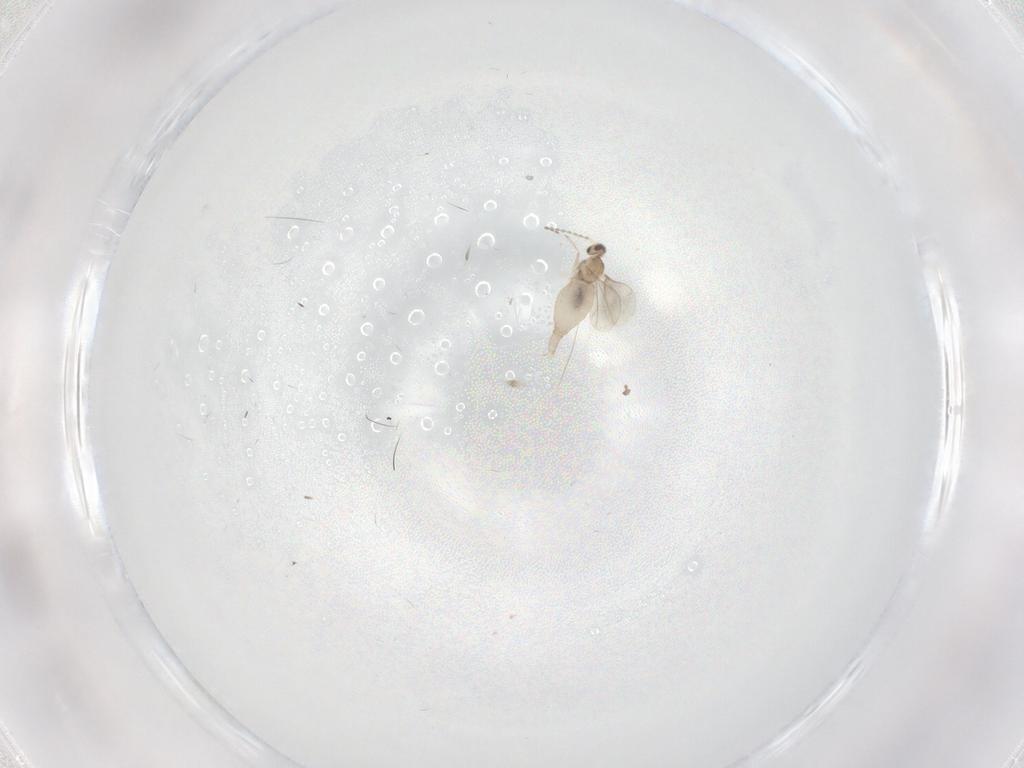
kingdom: Animalia
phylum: Arthropoda
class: Insecta
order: Diptera
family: Cecidomyiidae
